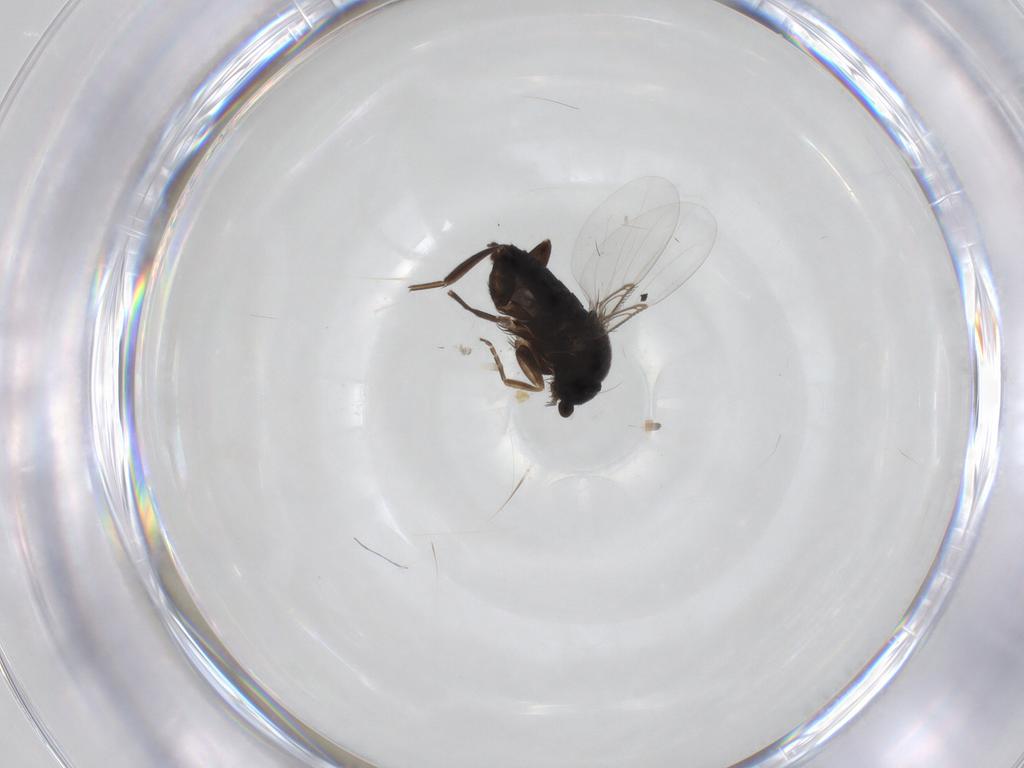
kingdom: Animalia
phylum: Arthropoda
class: Insecta
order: Diptera
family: Phoridae
